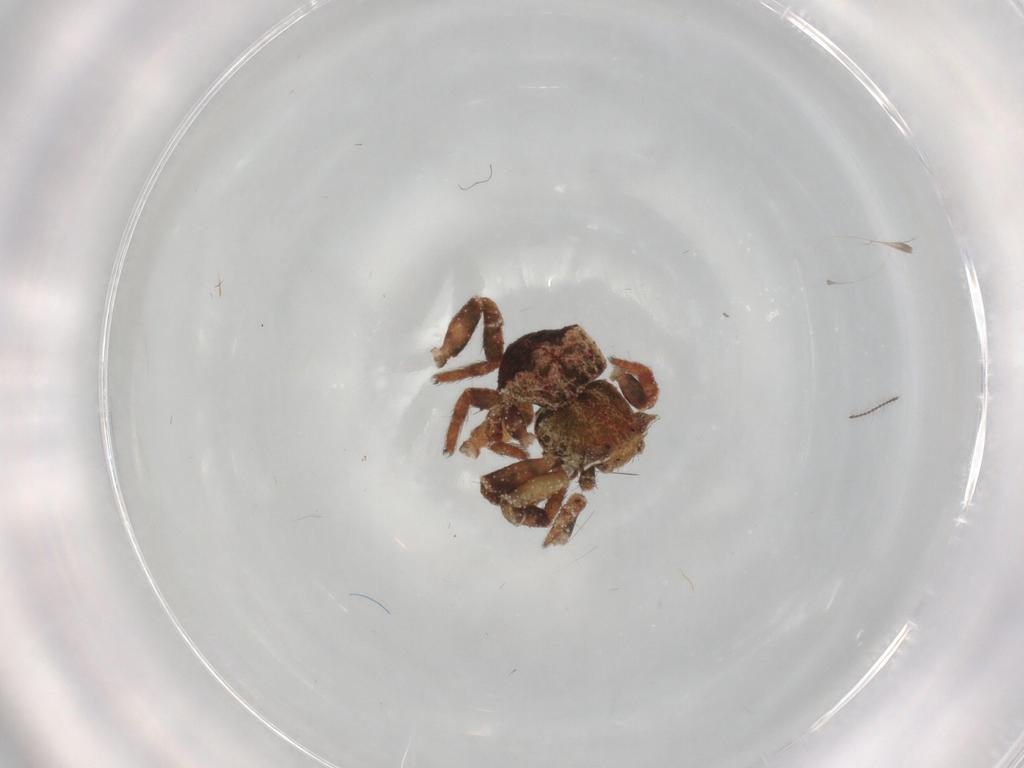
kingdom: Animalia
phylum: Arthropoda
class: Arachnida
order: Araneae
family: Thomisidae
